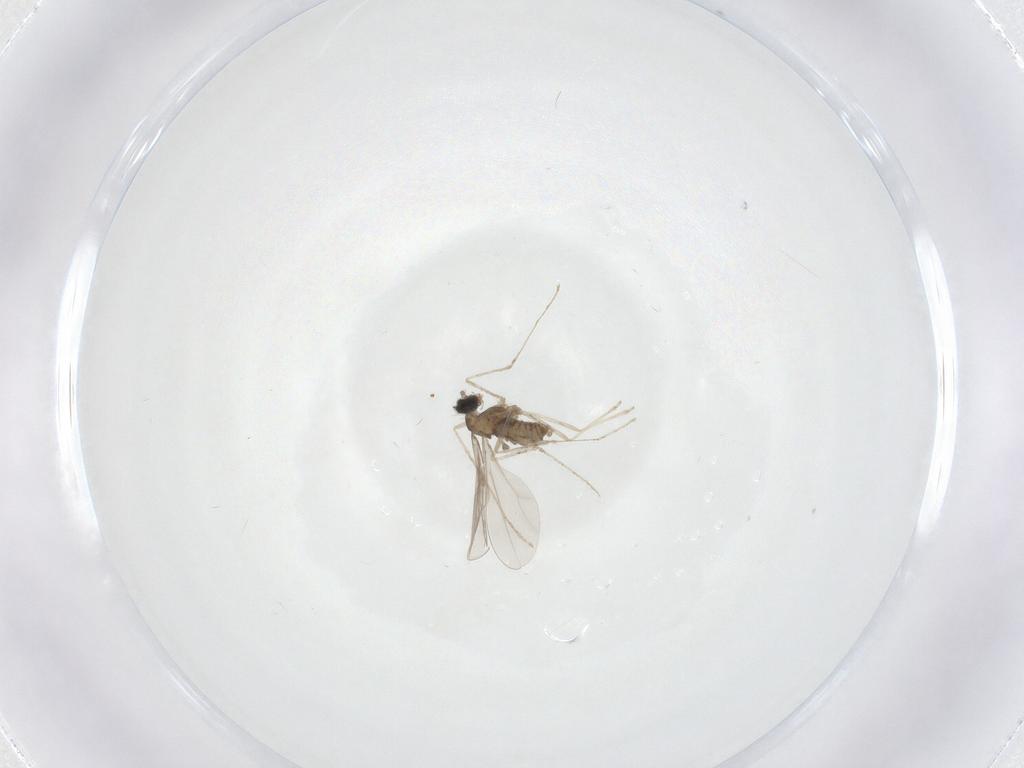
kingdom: Animalia
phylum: Arthropoda
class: Insecta
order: Diptera
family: Cecidomyiidae
